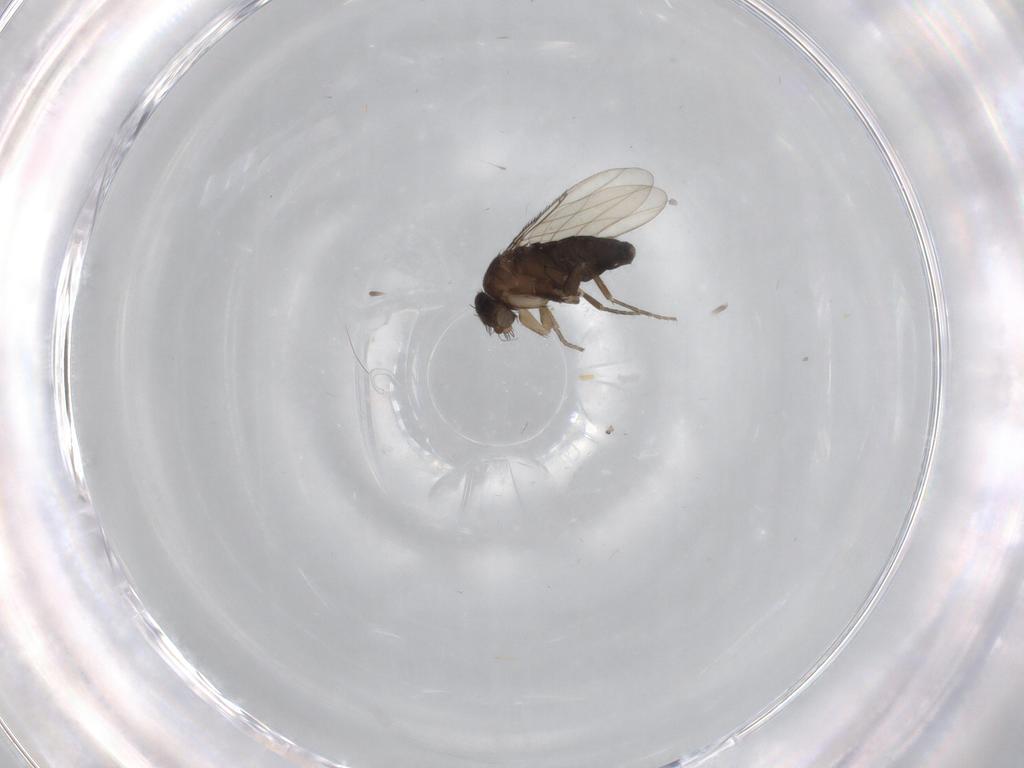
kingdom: Animalia
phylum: Arthropoda
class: Insecta
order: Diptera
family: Phoridae
